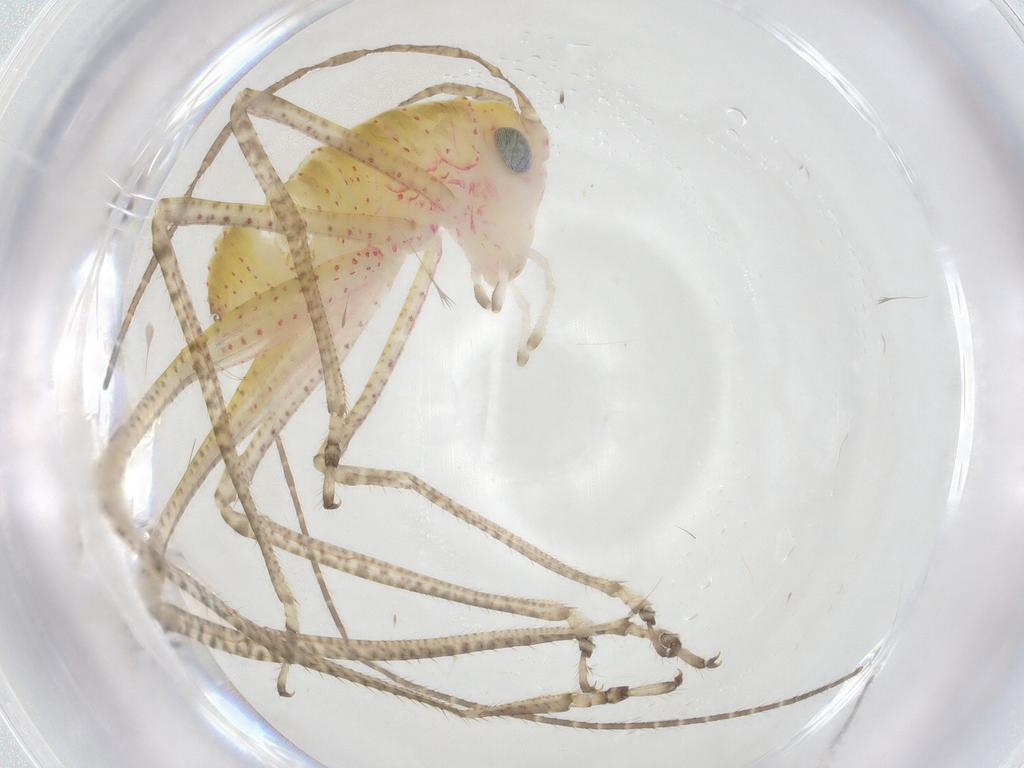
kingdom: Animalia
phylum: Arthropoda
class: Insecta
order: Orthoptera
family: Tettigoniidae
